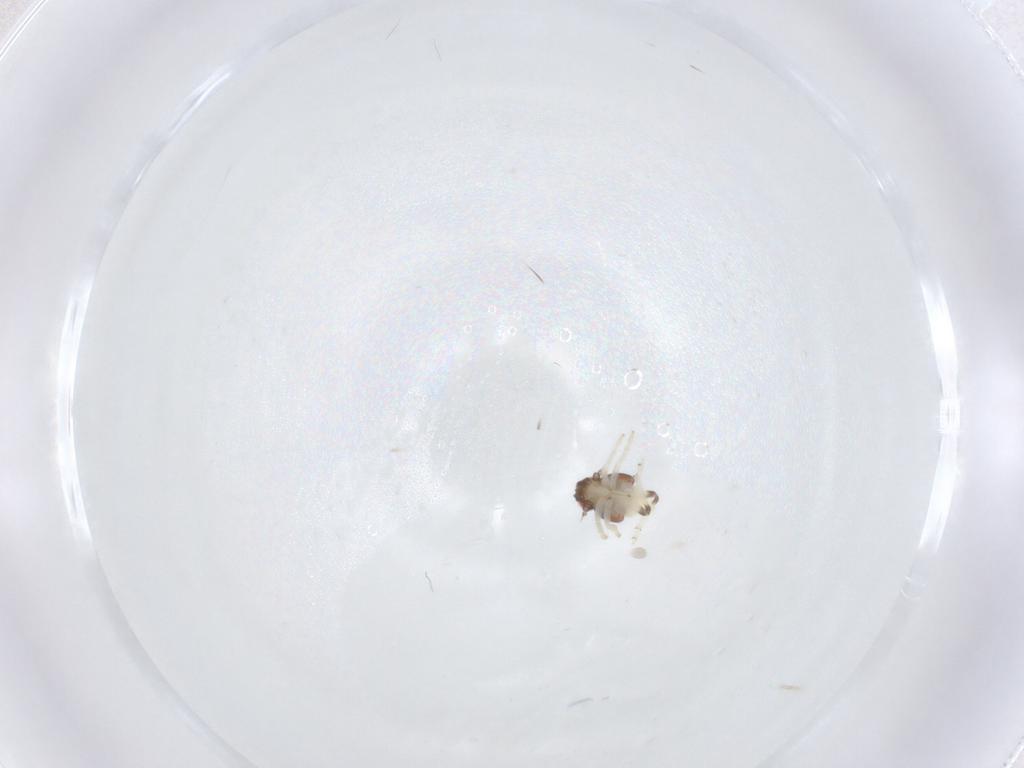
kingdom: Animalia
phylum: Arthropoda
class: Insecta
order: Hemiptera
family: Nogodinidae
